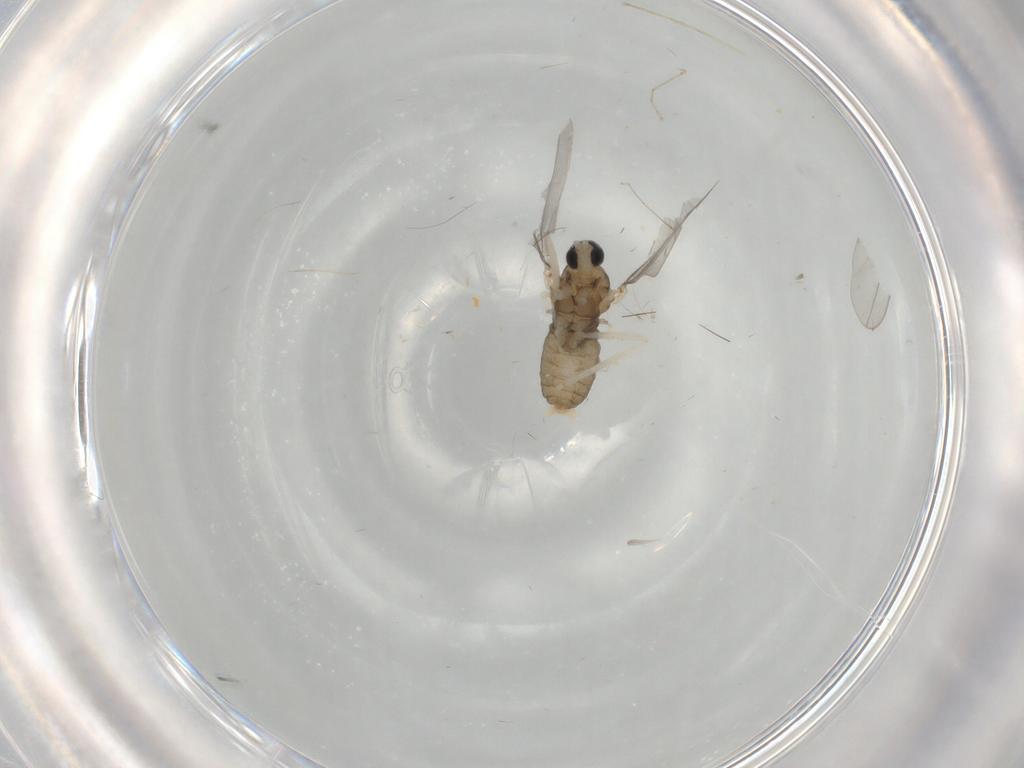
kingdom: Animalia
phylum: Arthropoda
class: Insecta
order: Diptera
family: Cecidomyiidae
